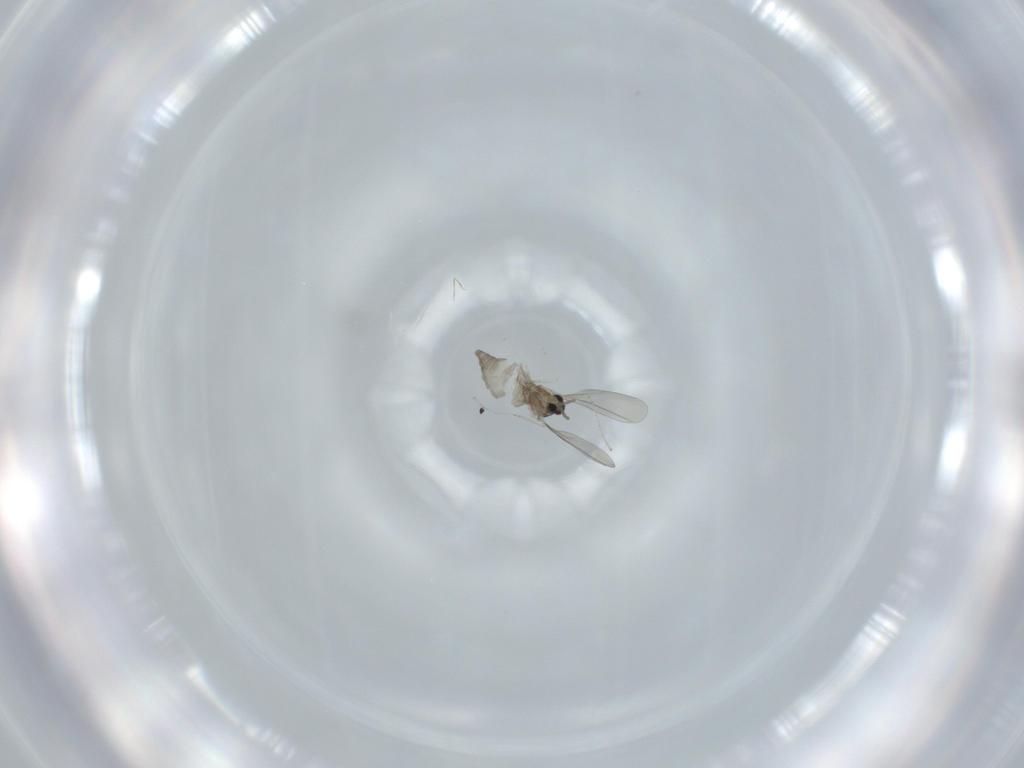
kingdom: Animalia
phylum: Arthropoda
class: Insecta
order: Diptera
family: Cecidomyiidae
